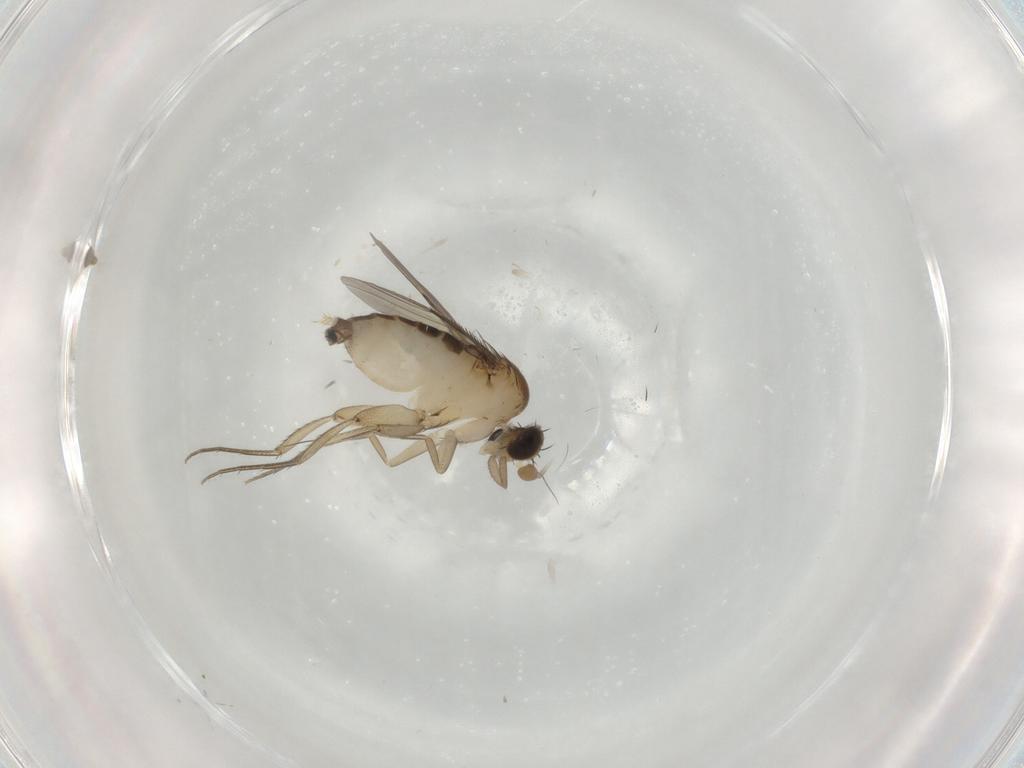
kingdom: Animalia
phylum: Arthropoda
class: Insecta
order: Diptera
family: Phoridae
